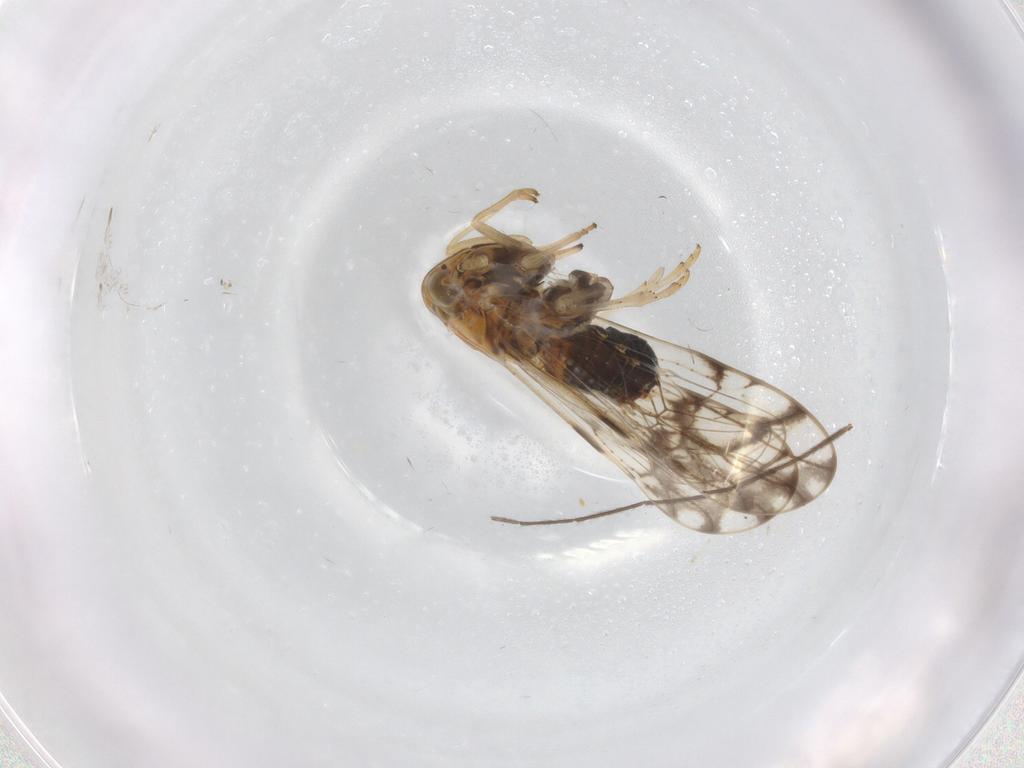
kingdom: Animalia
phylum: Arthropoda
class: Insecta
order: Hemiptera
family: Delphacidae
